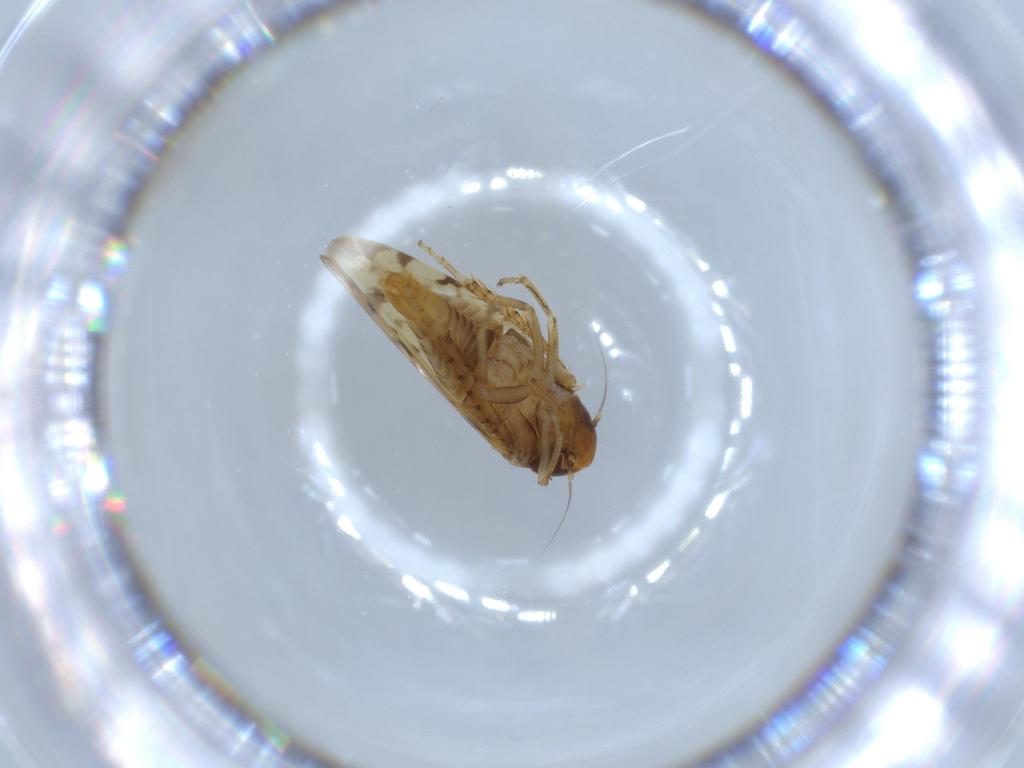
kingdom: Animalia
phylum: Arthropoda
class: Insecta
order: Hemiptera
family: Cicadellidae
